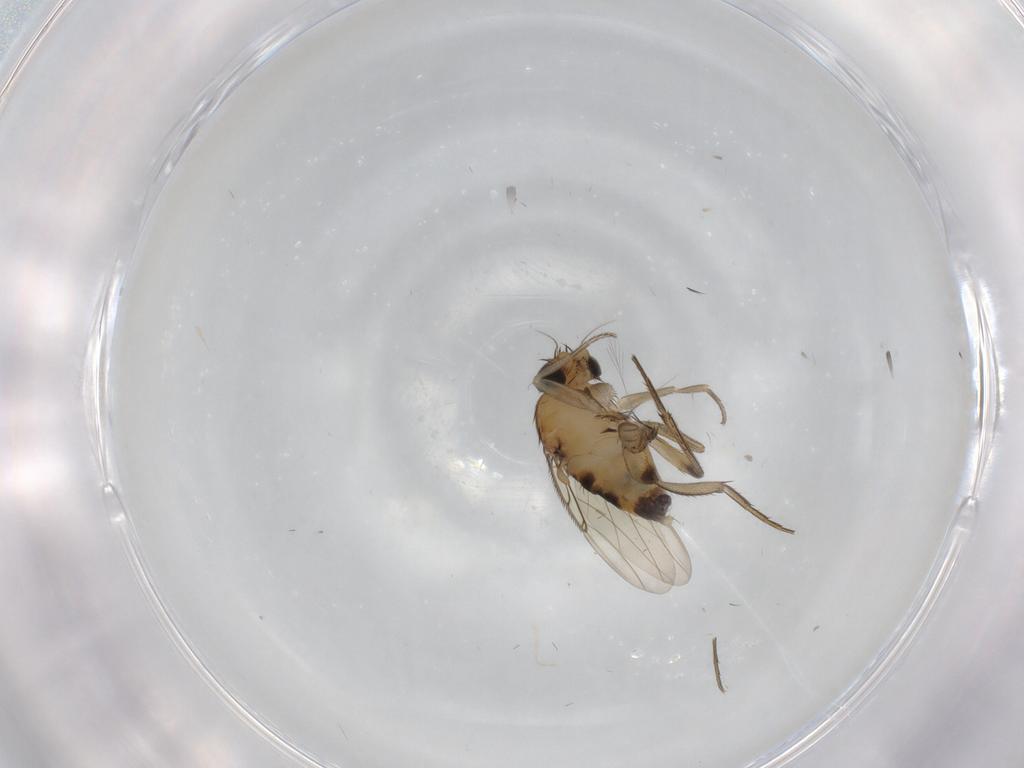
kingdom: Animalia
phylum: Arthropoda
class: Insecta
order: Diptera
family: Phoridae
